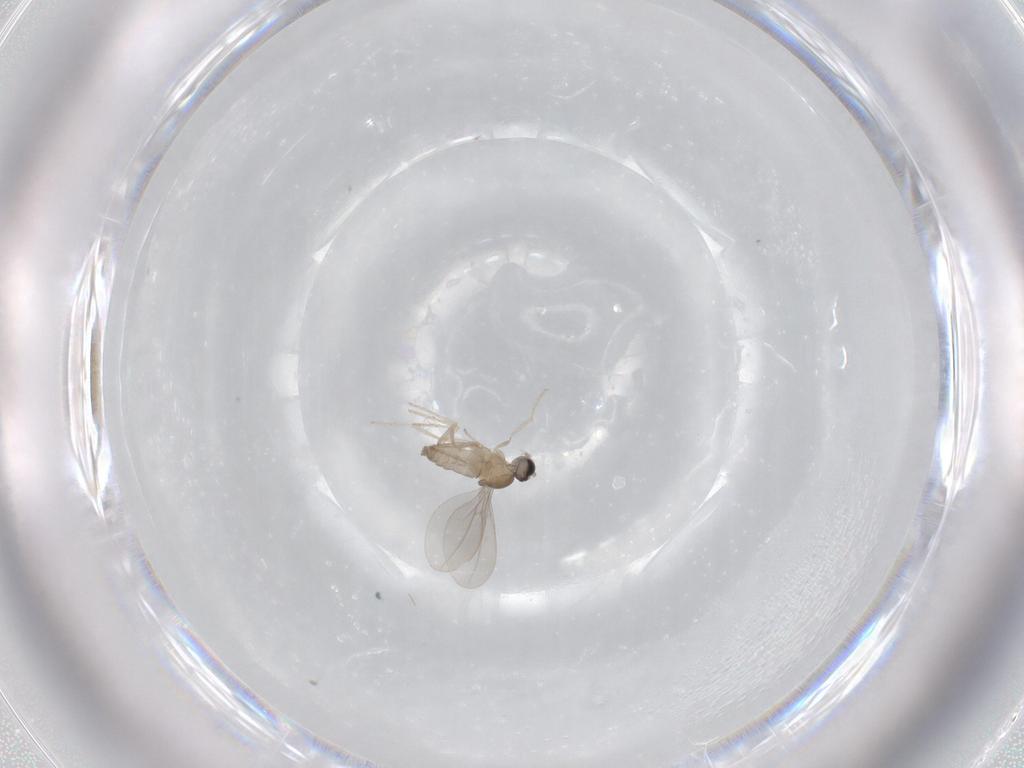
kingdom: Animalia
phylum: Arthropoda
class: Insecta
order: Diptera
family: Cecidomyiidae
